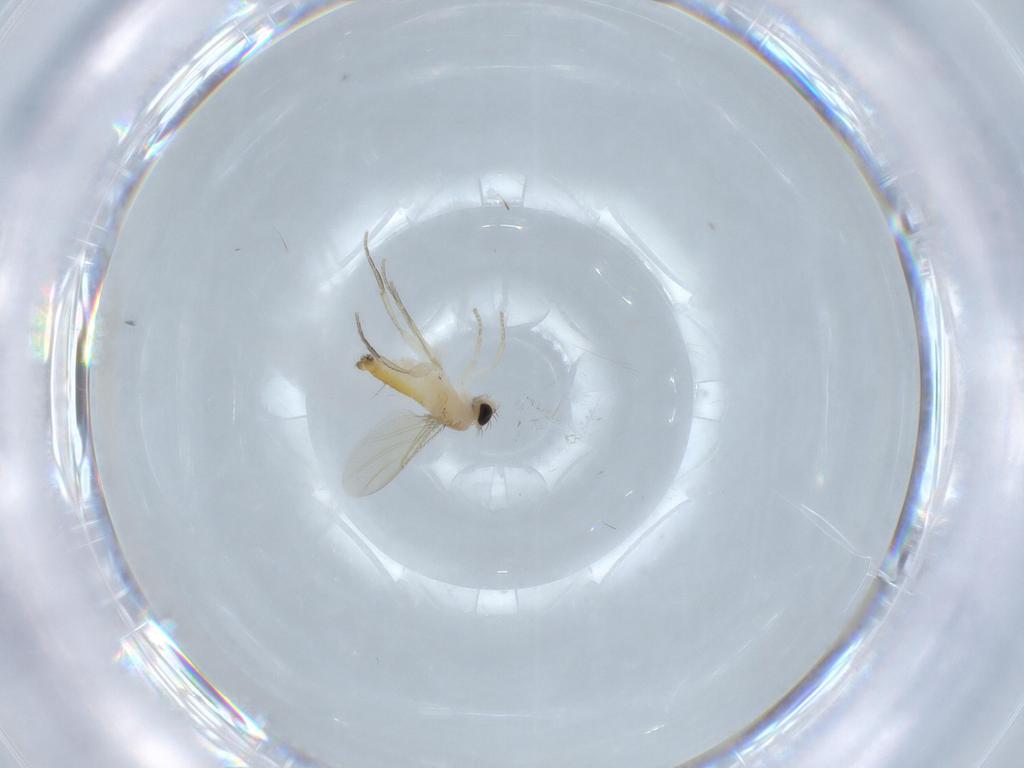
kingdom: Animalia
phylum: Arthropoda
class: Insecta
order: Diptera
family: Phoridae
